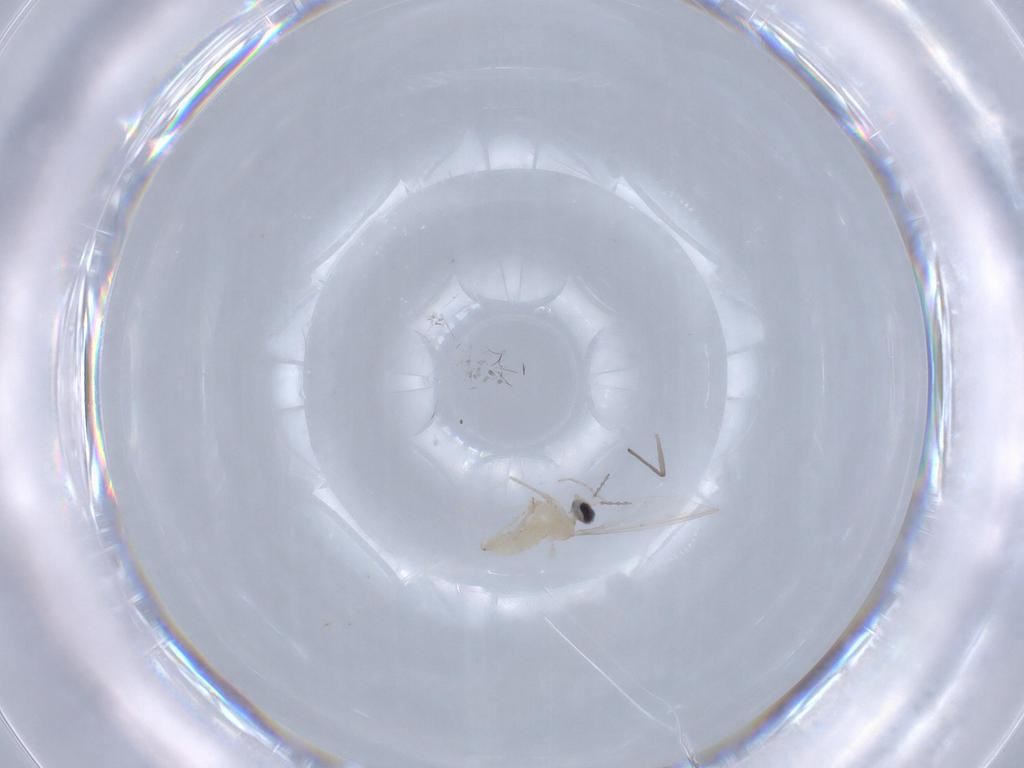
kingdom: Animalia
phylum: Arthropoda
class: Insecta
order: Diptera
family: Cecidomyiidae
